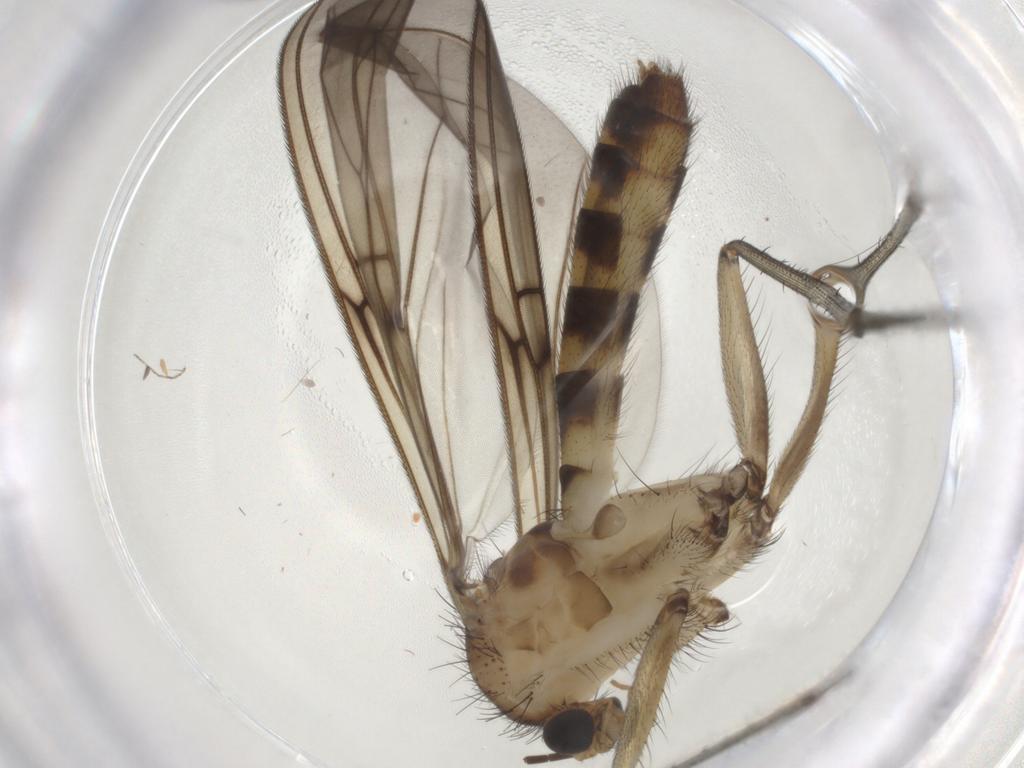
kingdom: Animalia
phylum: Arthropoda
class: Insecta
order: Diptera
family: Mycetophilidae
